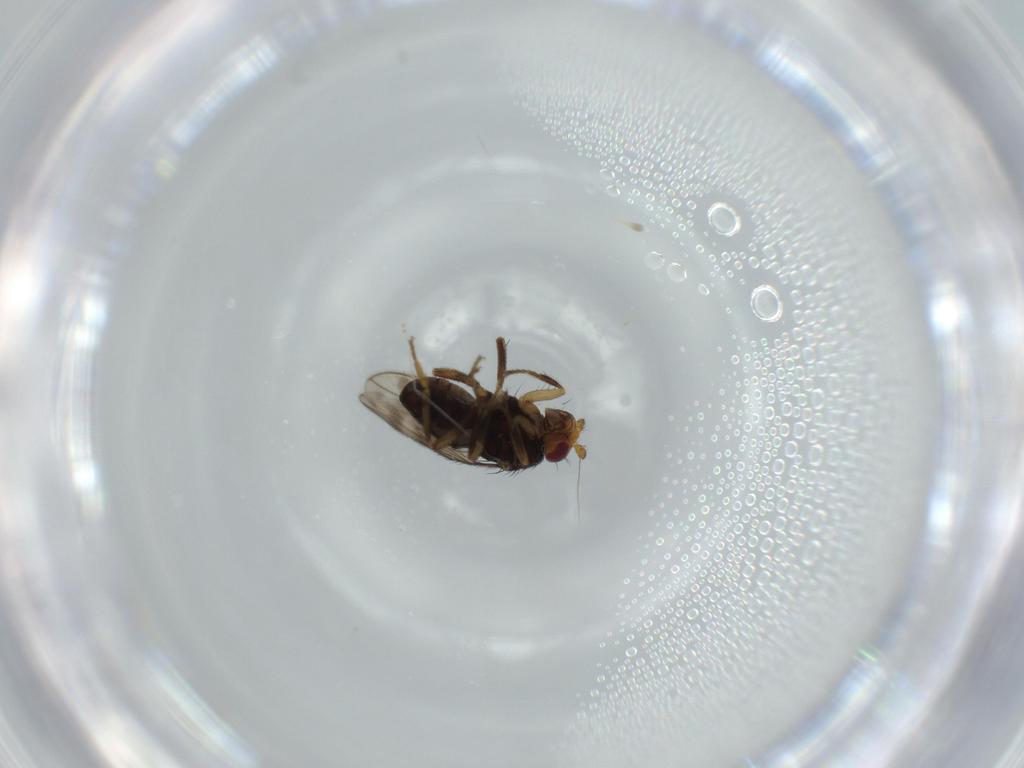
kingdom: Animalia
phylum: Arthropoda
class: Insecta
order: Diptera
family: Sphaeroceridae
